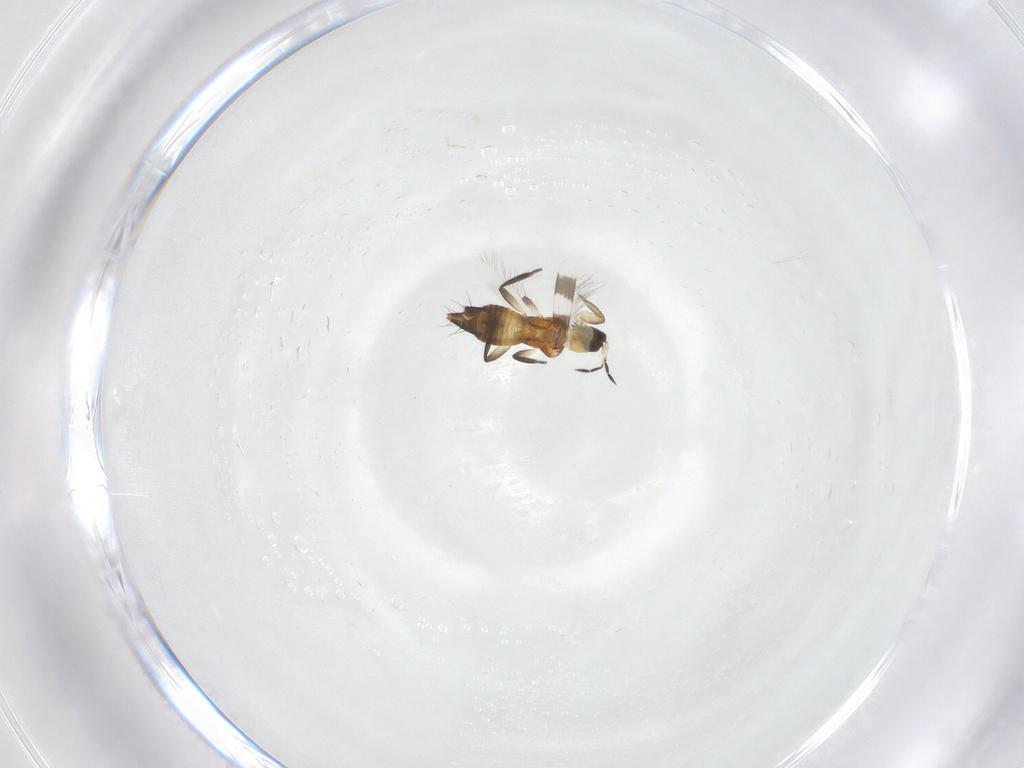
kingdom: Animalia
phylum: Arthropoda
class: Insecta
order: Thysanoptera
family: Aeolothripidae
